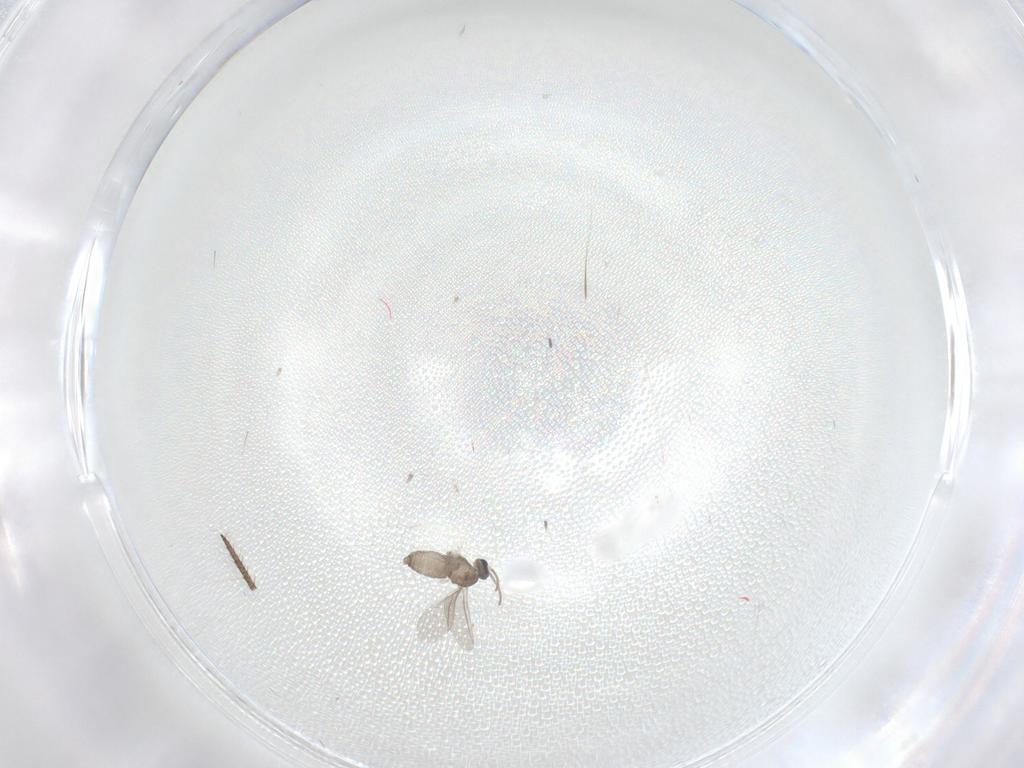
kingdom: Animalia
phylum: Arthropoda
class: Insecta
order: Diptera
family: Cecidomyiidae
